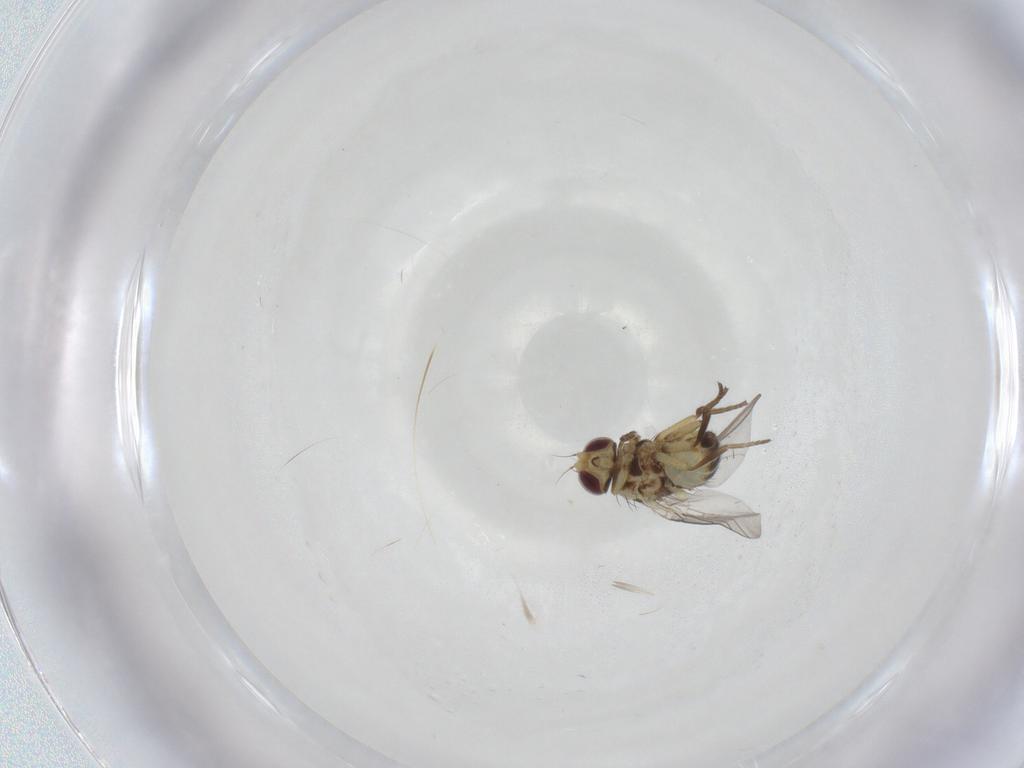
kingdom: Animalia
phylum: Arthropoda
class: Insecta
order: Diptera
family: Agromyzidae
